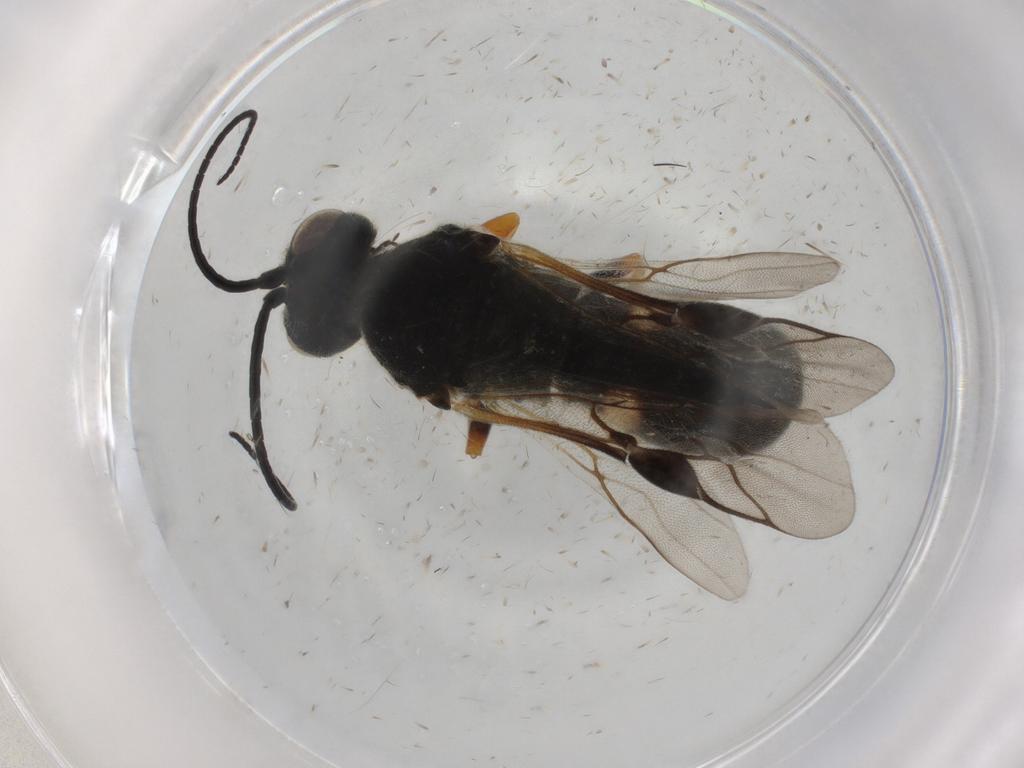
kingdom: Animalia
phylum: Arthropoda
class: Insecta
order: Hymenoptera
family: Braconidae
